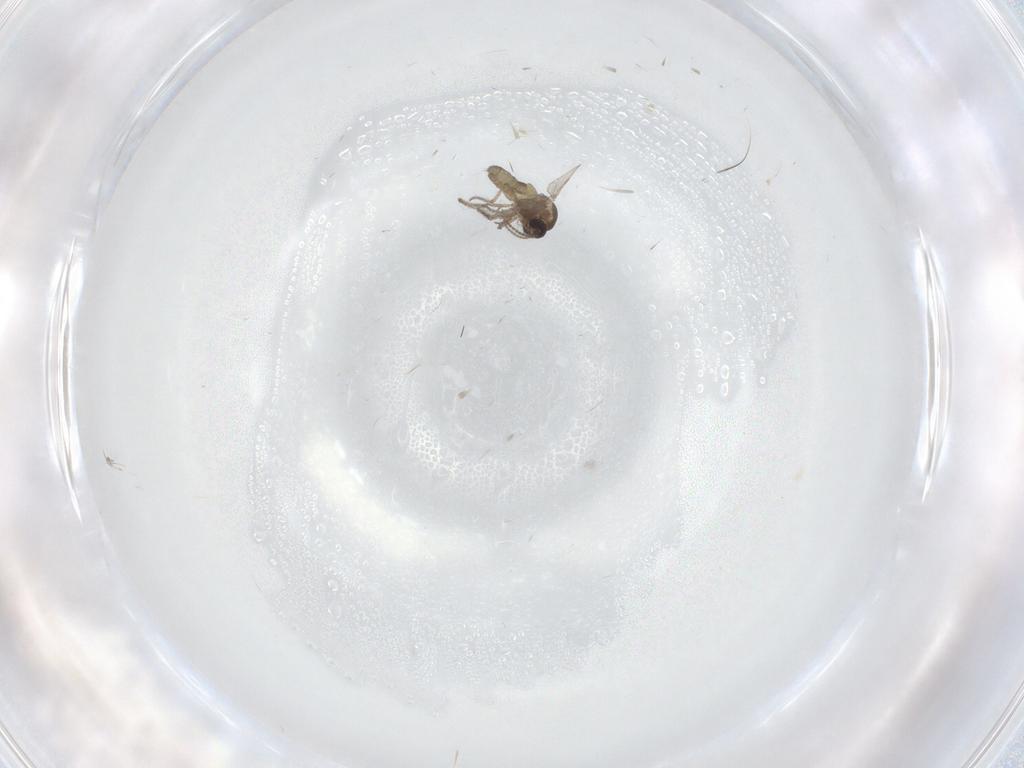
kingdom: Animalia
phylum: Arthropoda
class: Insecta
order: Diptera
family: Ceratopogonidae
